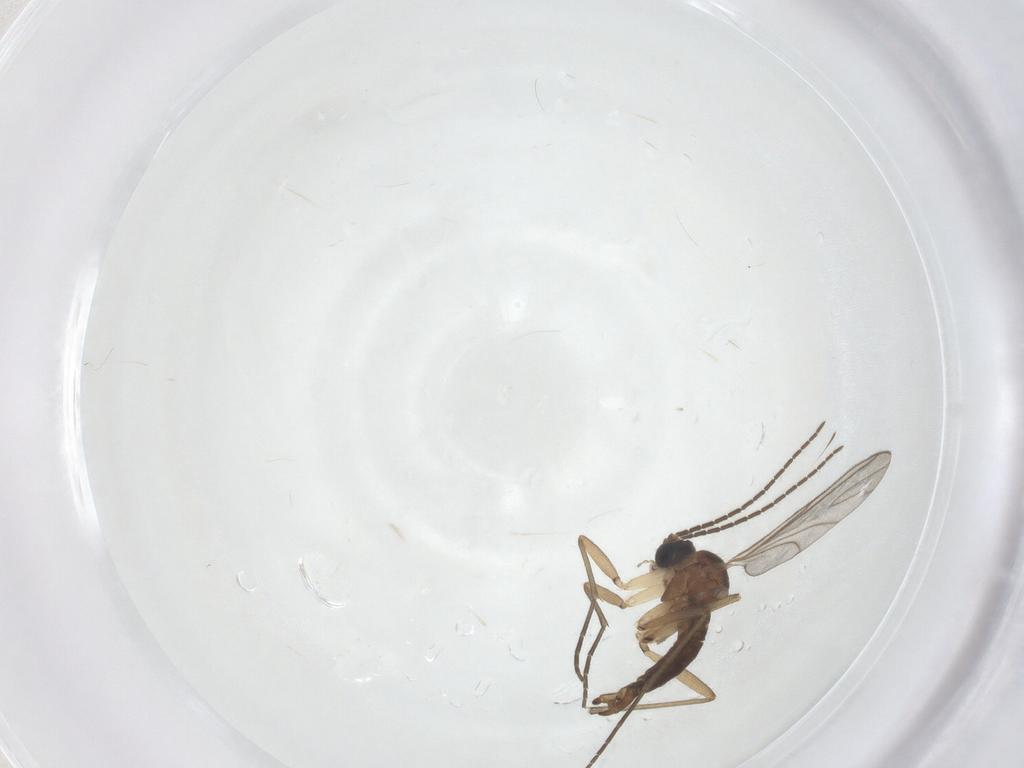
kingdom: Animalia
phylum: Arthropoda
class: Insecta
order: Diptera
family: Sciaridae
